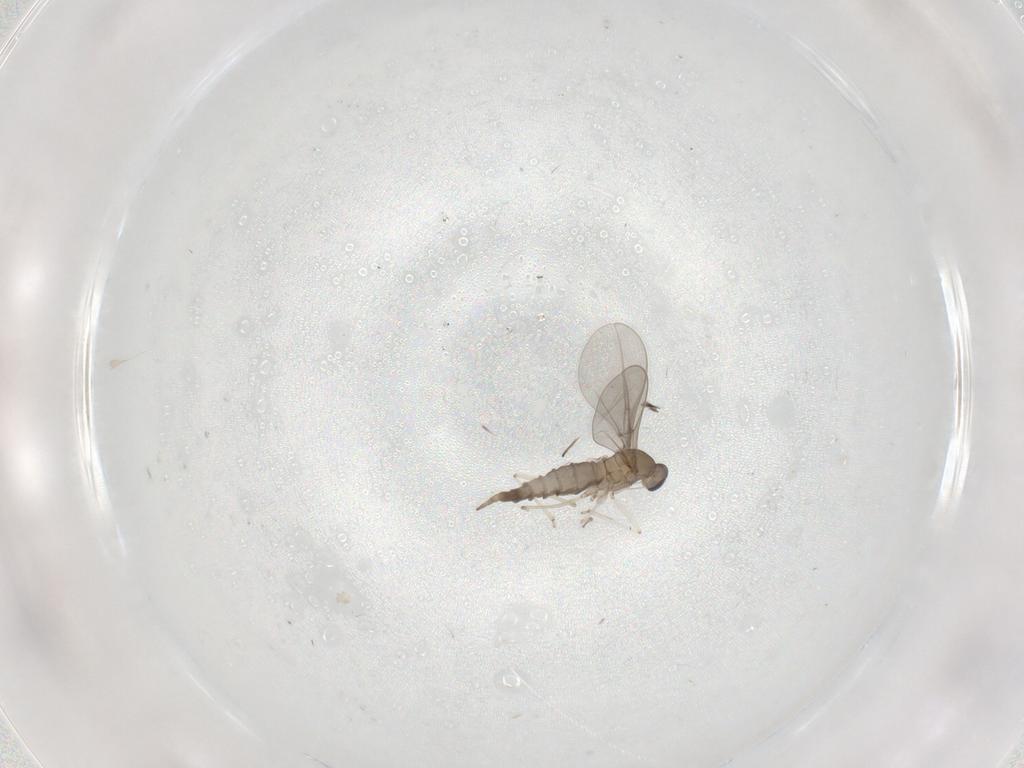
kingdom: Animalia
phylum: Arthropoda
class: Insecta
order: Diptera
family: Cecidomyiidae
